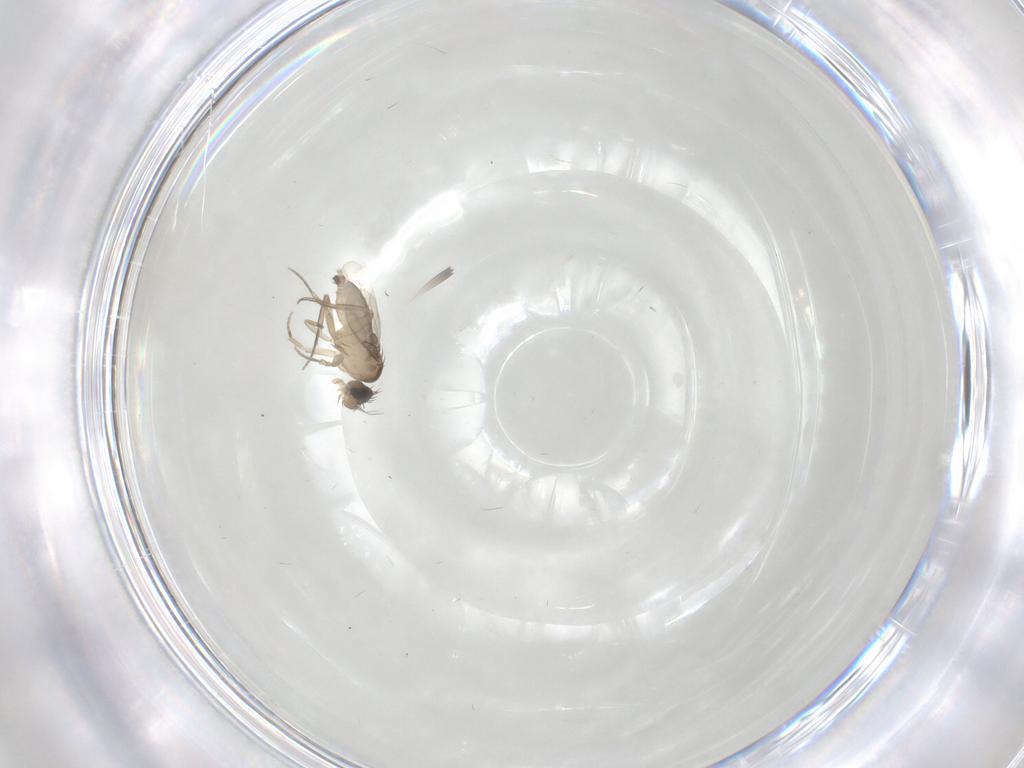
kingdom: Animalia
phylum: Arthropoda
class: Insecta
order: Diptera
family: Phoridae
